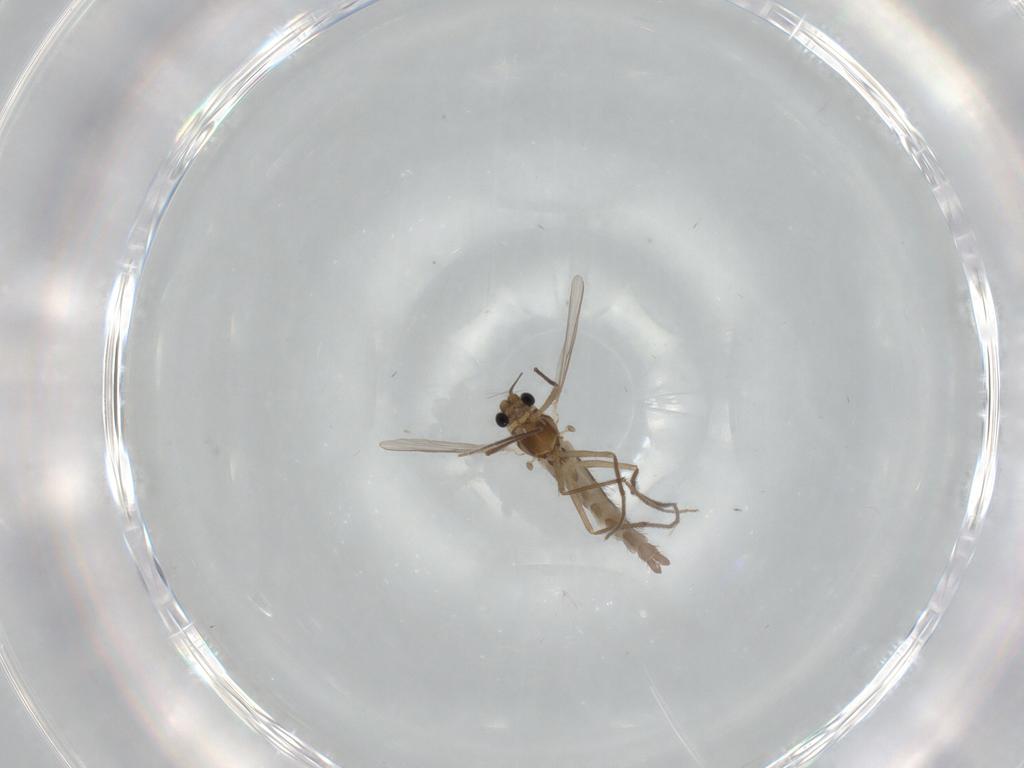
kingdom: Animalia
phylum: Arthropoda
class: Insecta
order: Diptera
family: Chironomidae
